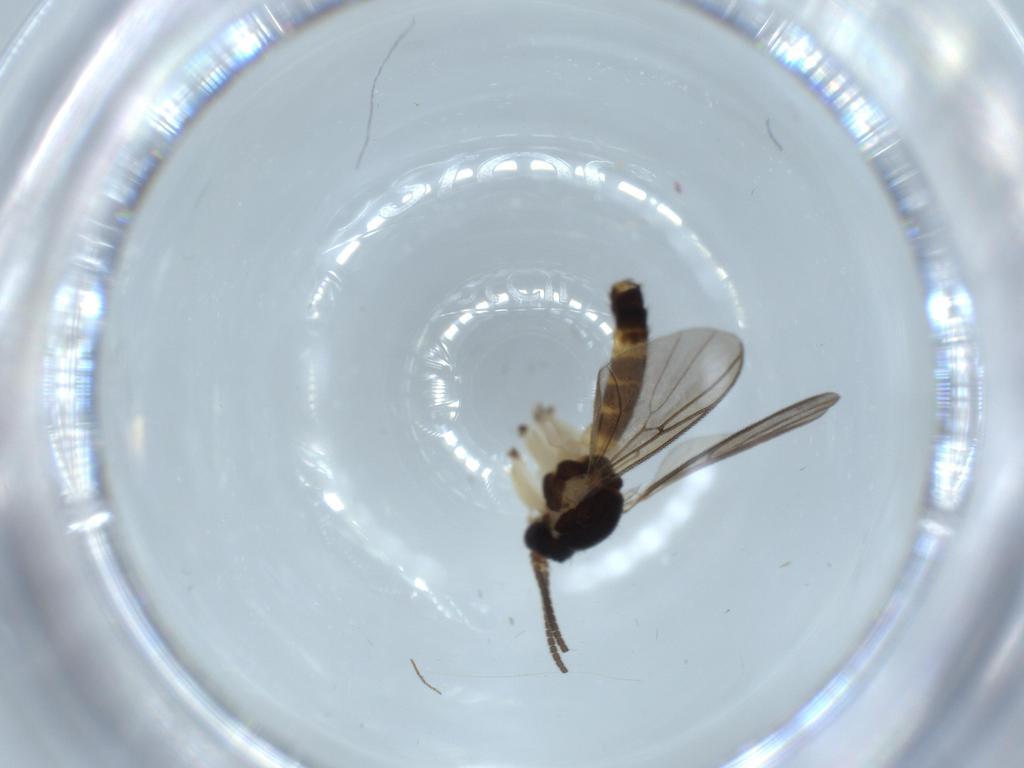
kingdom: Animalia
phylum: Arthropoda
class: Insecta
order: Diptera
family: Mycetophilidae
